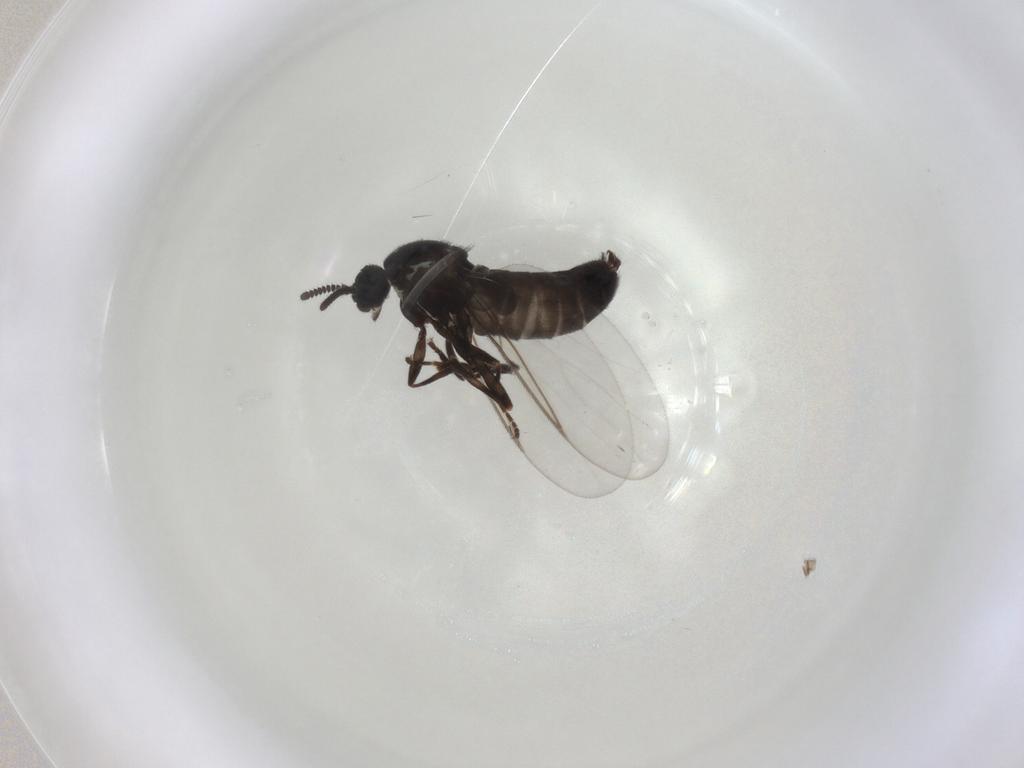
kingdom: Animalia
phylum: Arthropoda
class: Insecta
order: Diptera
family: Scatopsidae
